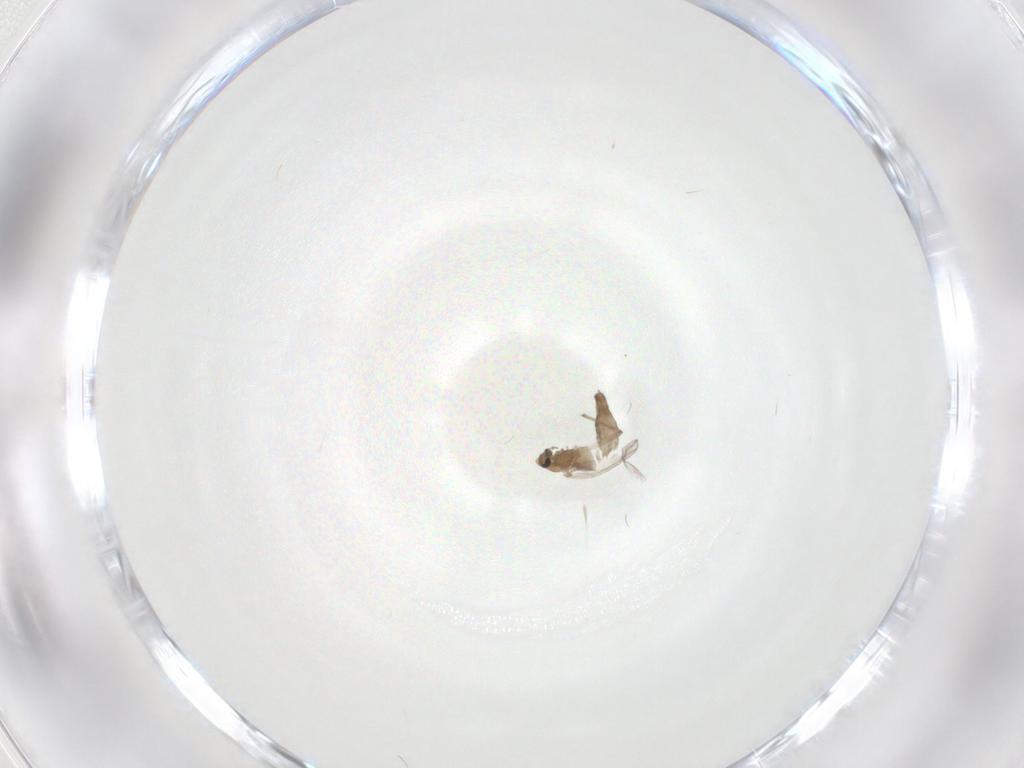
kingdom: Animalia
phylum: Arthropoda
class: Insecta
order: Diptera
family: Chironomidae
